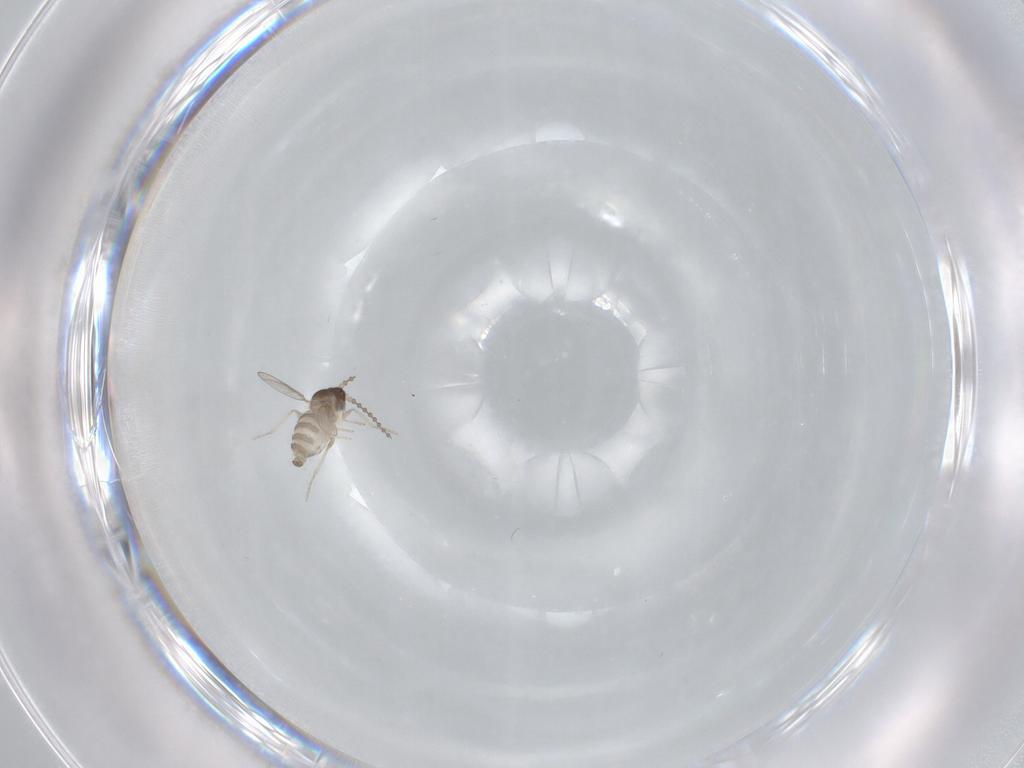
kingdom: Animalia
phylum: Arthropoda
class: Insecta
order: Diptera
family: Cecidomyiidae
